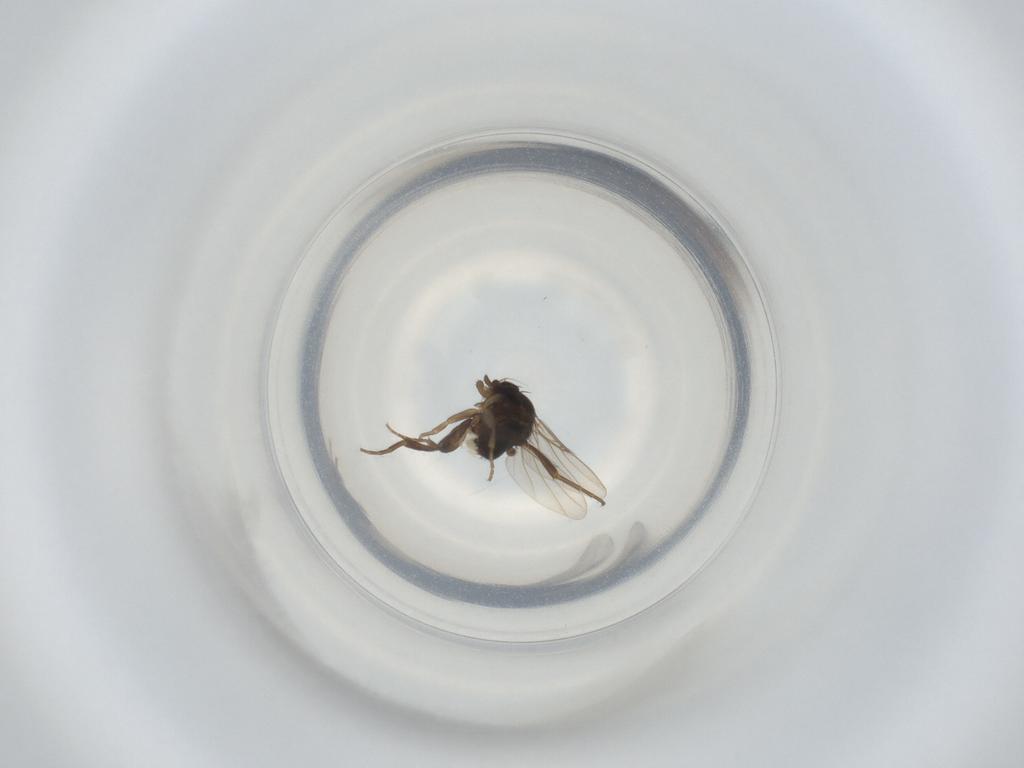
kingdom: Animalia
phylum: Arthropoda
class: Insecta
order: Diptera
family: Phoridae
